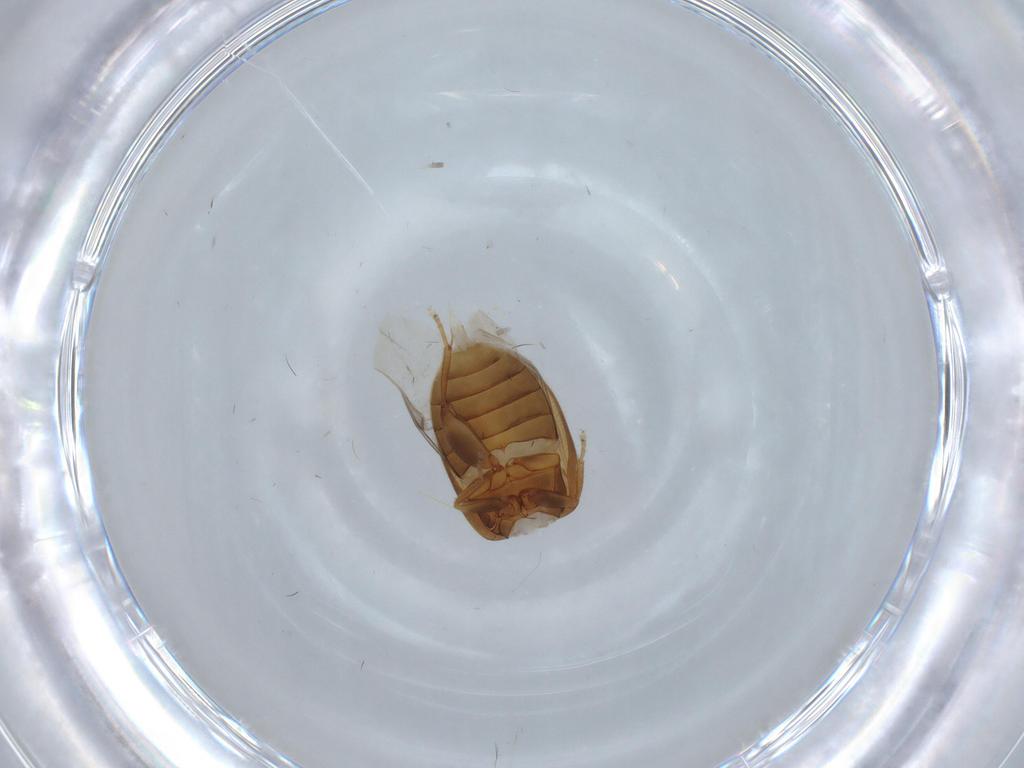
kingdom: Animalia
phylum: Arthropoda
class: Insecta
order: Coleoptera
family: Scirtidae
